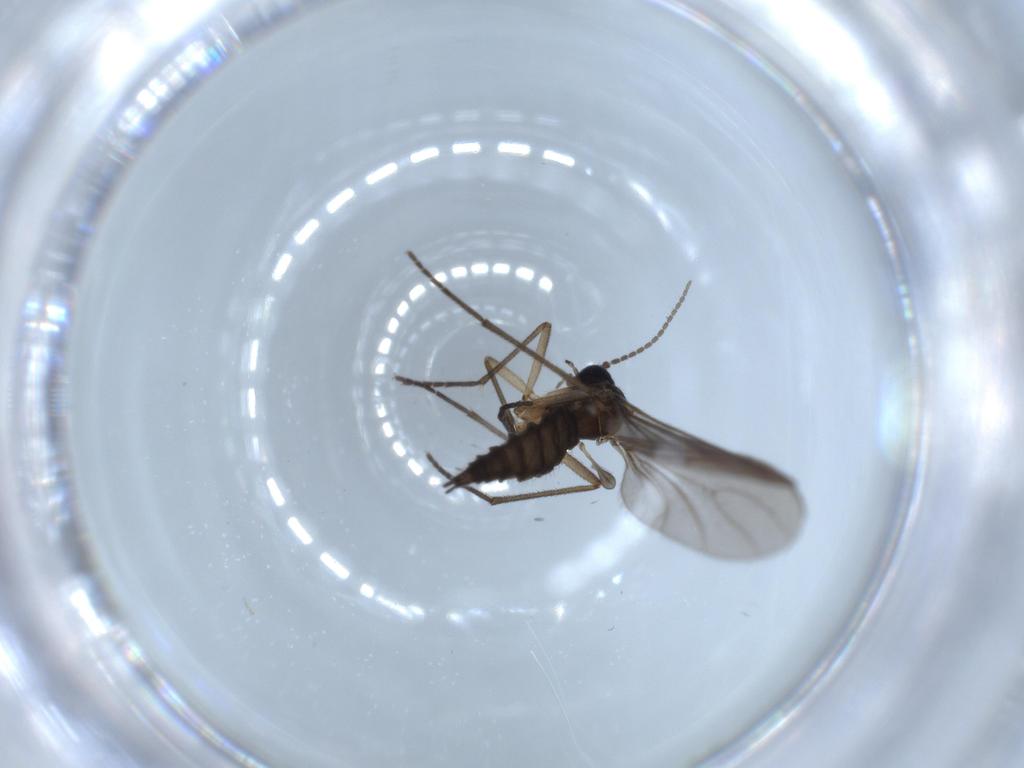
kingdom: Animalia
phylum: Arthropoda
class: Insecta
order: Diptera
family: Sciaridae
